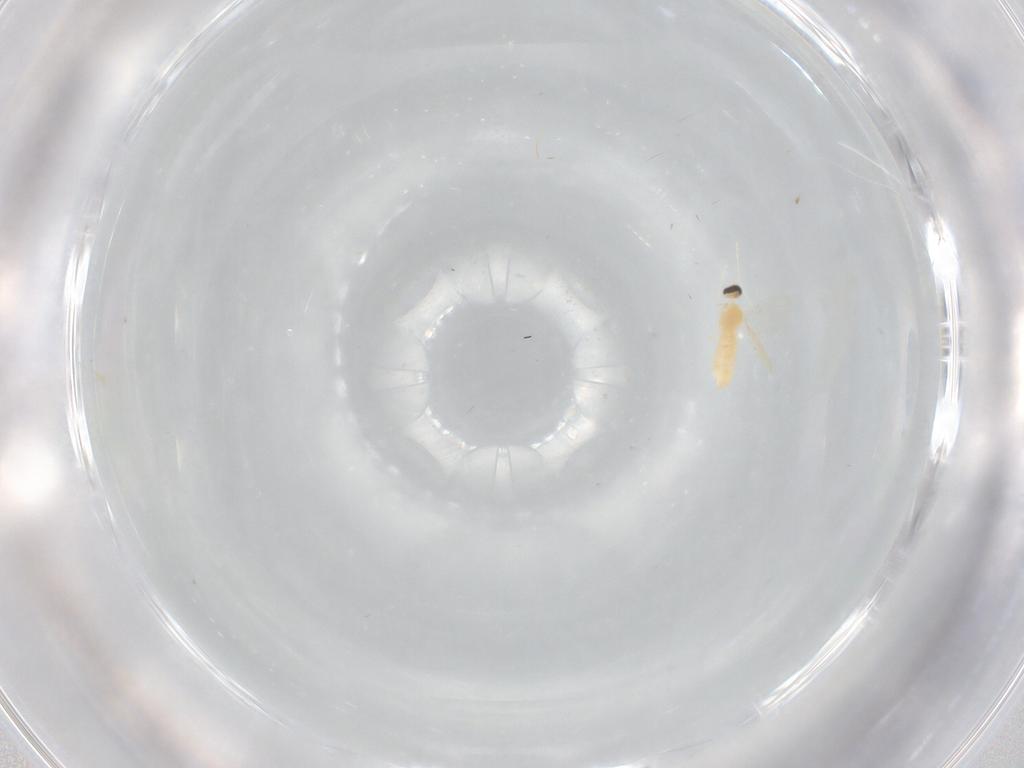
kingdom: Animalia
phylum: Arthropoda
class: Insecta
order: Diptera
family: Cecidomyiidae
